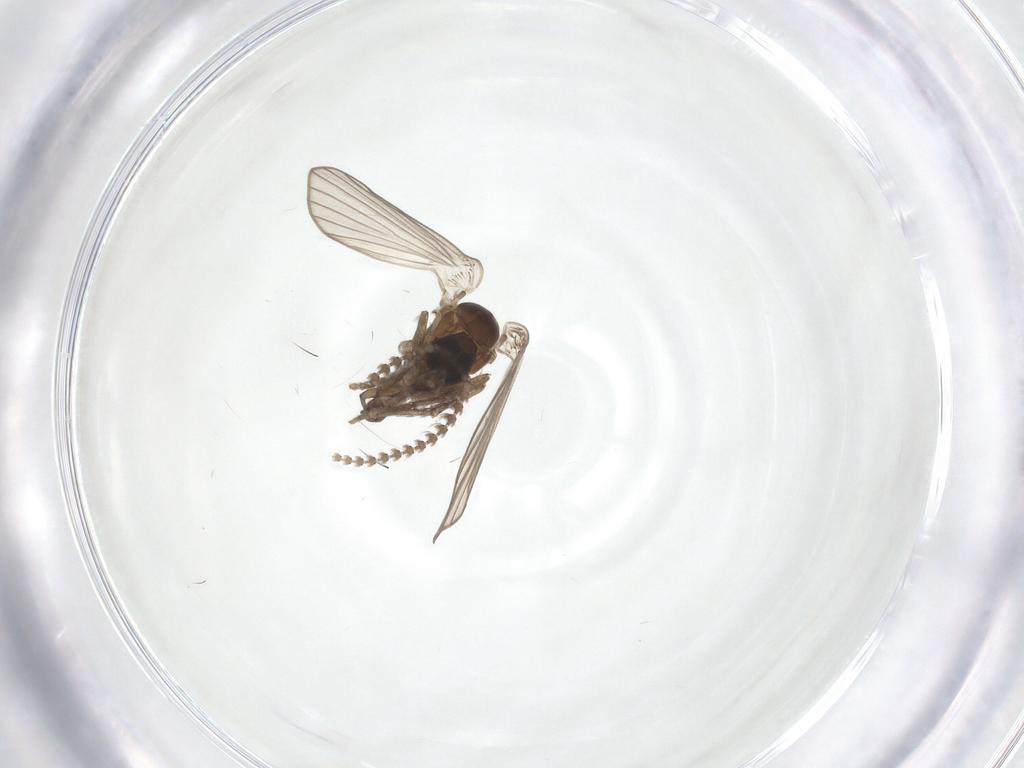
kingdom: Animalia
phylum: Arthropoda
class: Insecta
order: Diptera
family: Psychodidae
